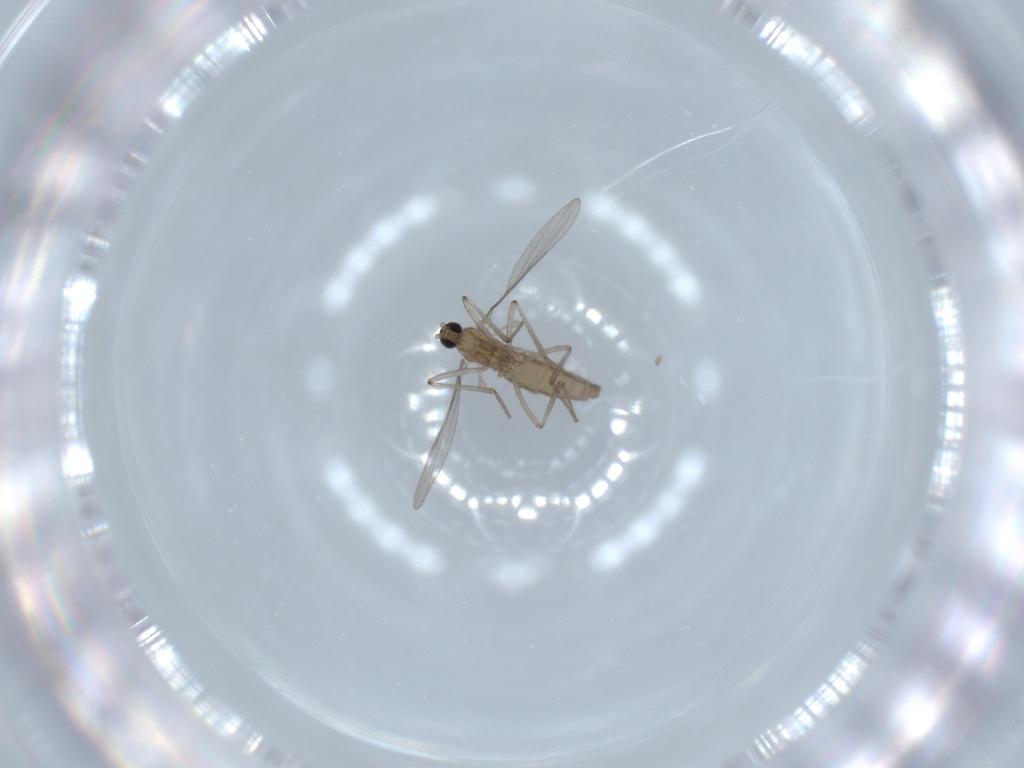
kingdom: Animalia
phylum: Arthropoda
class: Insecta
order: Diptera
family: Cecidomyiidae
